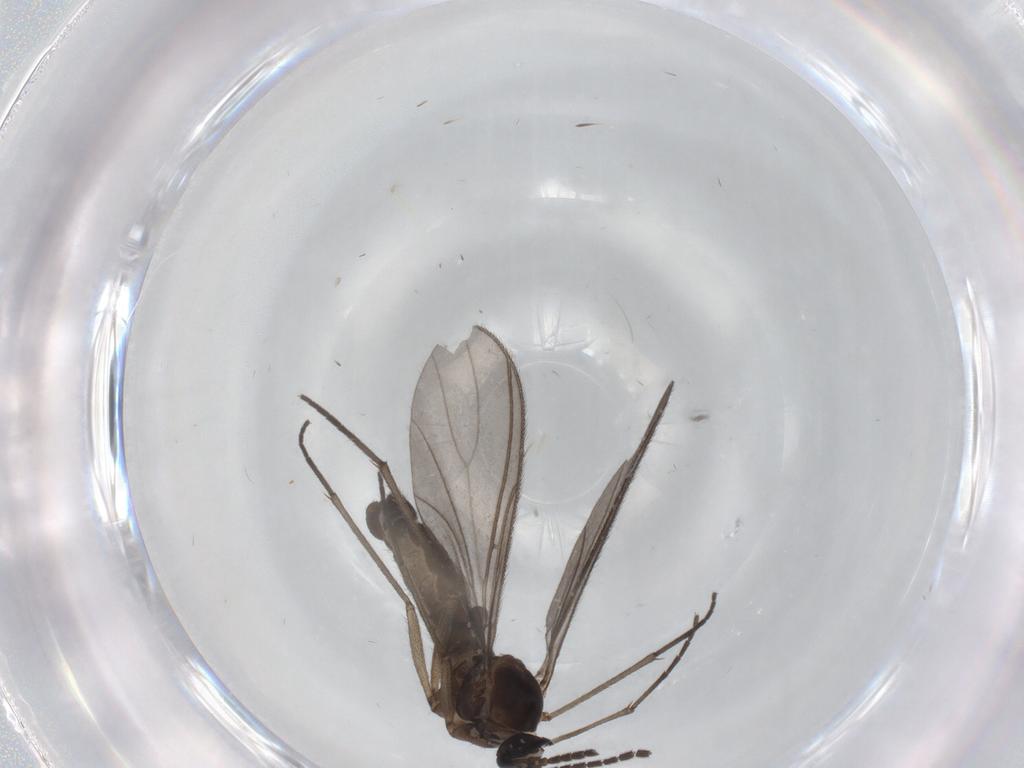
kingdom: Animalia
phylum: Arthropoda
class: Insecta
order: Diptera
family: Sciaridae
